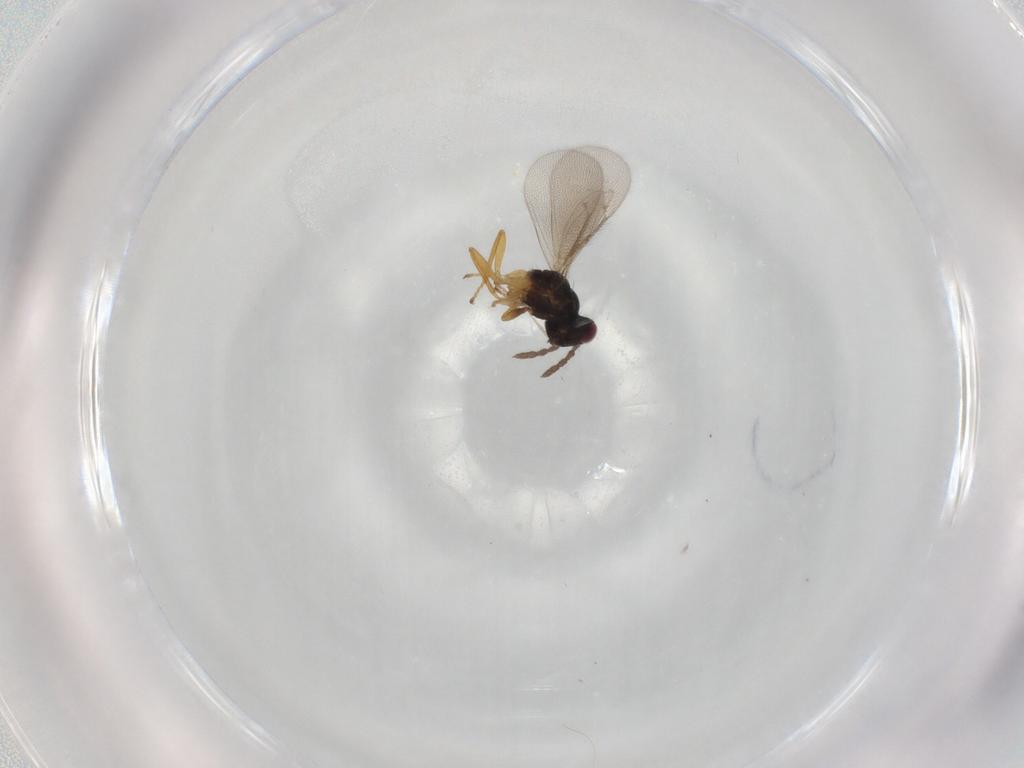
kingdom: Animalia
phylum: Arthropoda
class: Insecta
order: Hymenoptera
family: Eulophidae
